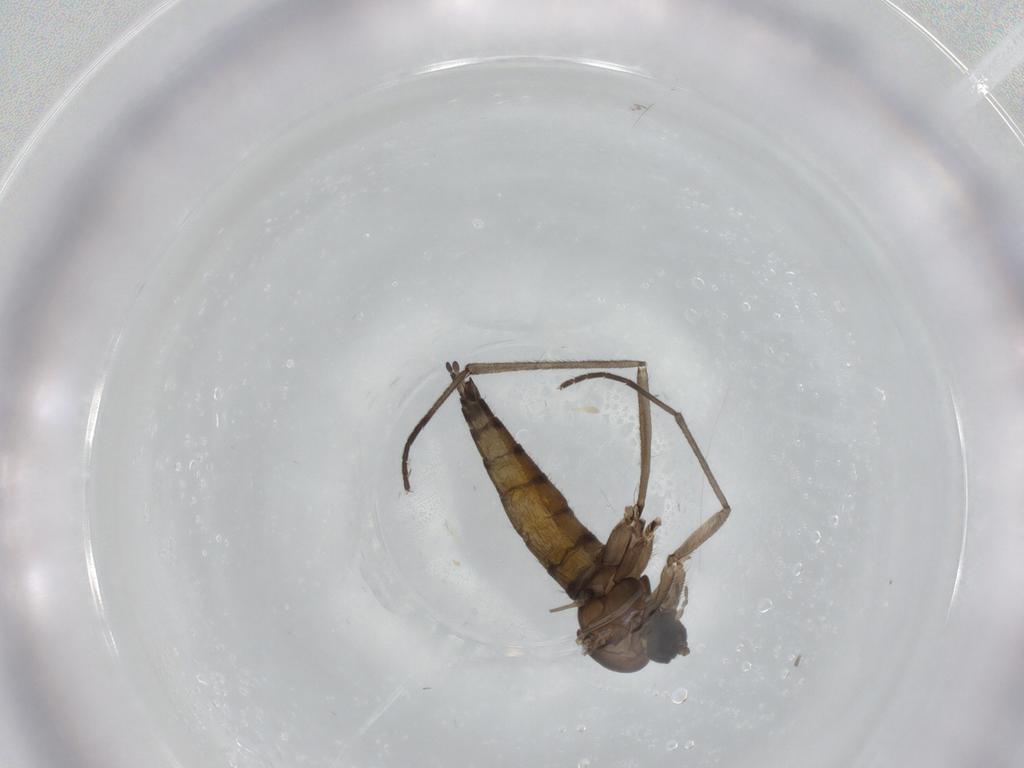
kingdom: Animalia
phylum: Arthropoda
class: Insecta
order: Diptera
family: Sciaridae
